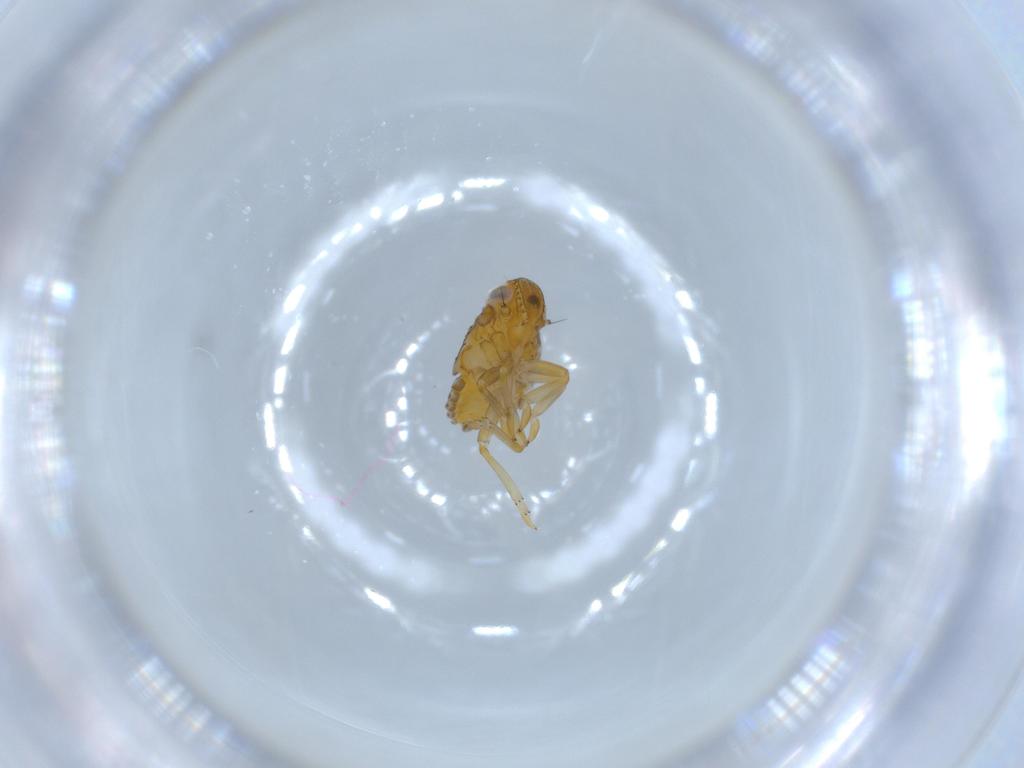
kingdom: Animalia
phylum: Arthropoda
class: Insecta
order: Hemiptera
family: Issidae
